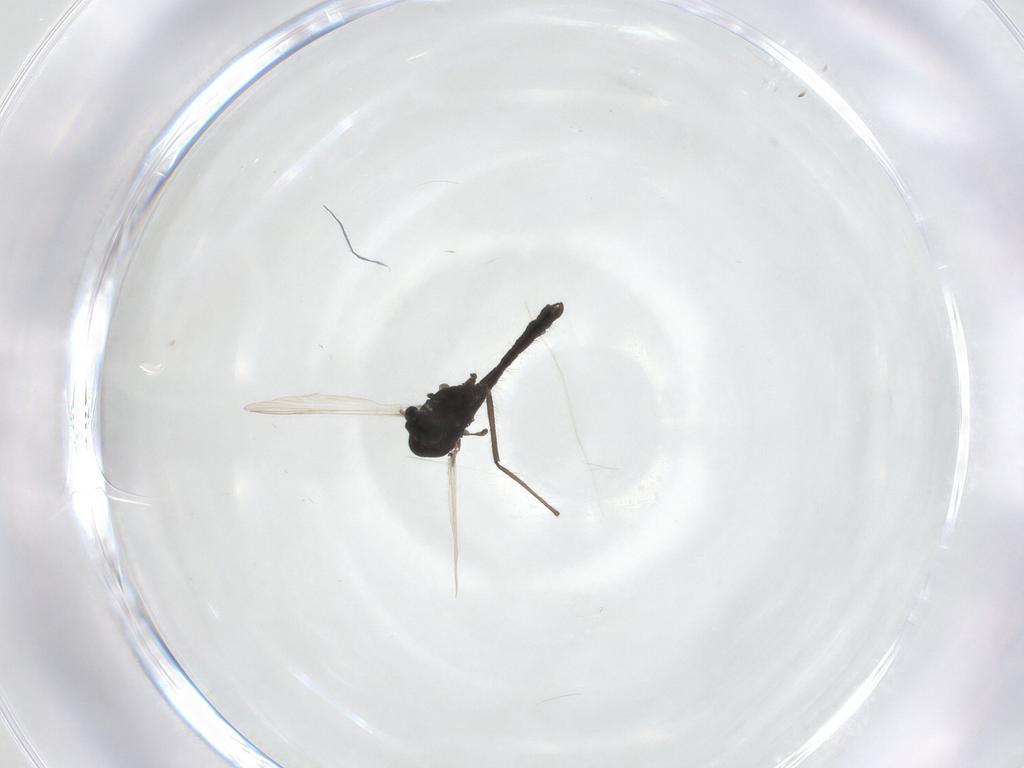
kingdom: Animalia
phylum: Arthropoda
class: Insecta
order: Diptera
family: Chironomidae
